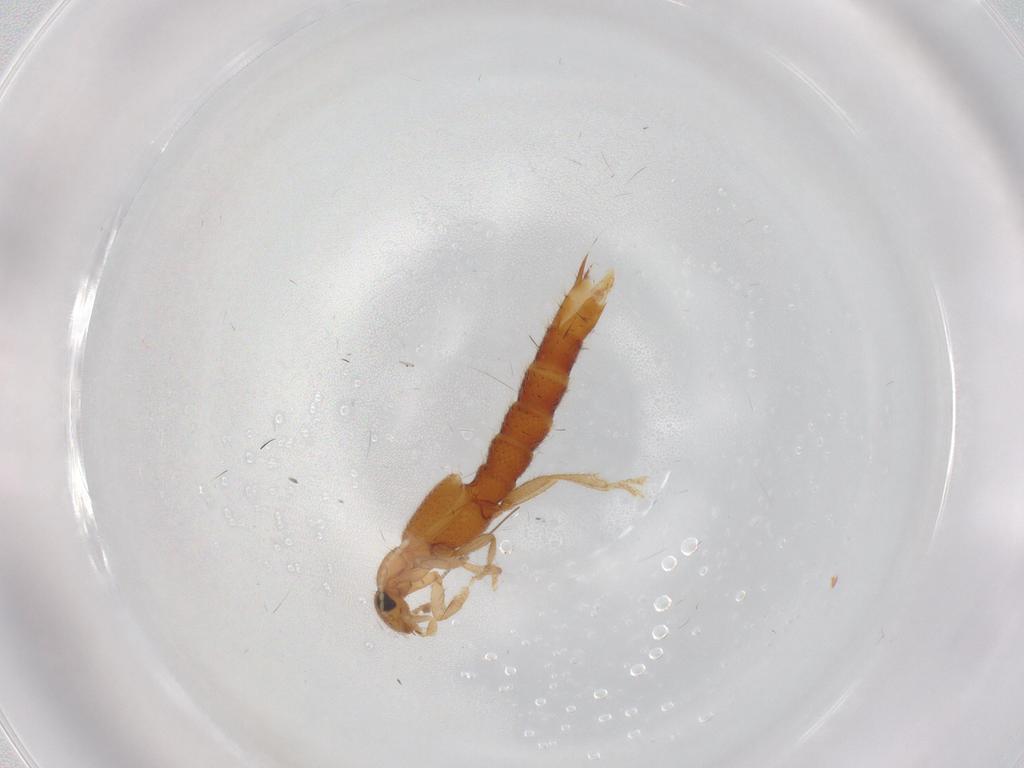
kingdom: Animalia
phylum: Arthropoda
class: Insecta
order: Coleoptera
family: Staphylinidae
